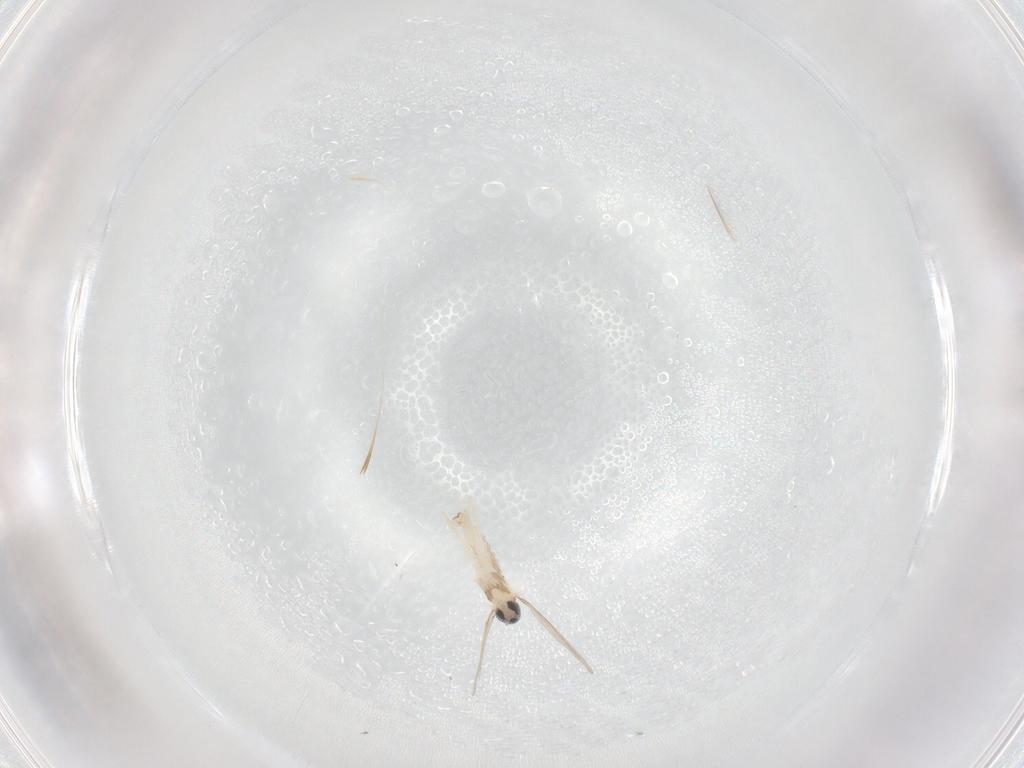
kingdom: Animalia
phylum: Arthropoda
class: Insecta
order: Diptera
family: Cecidomyiidae
